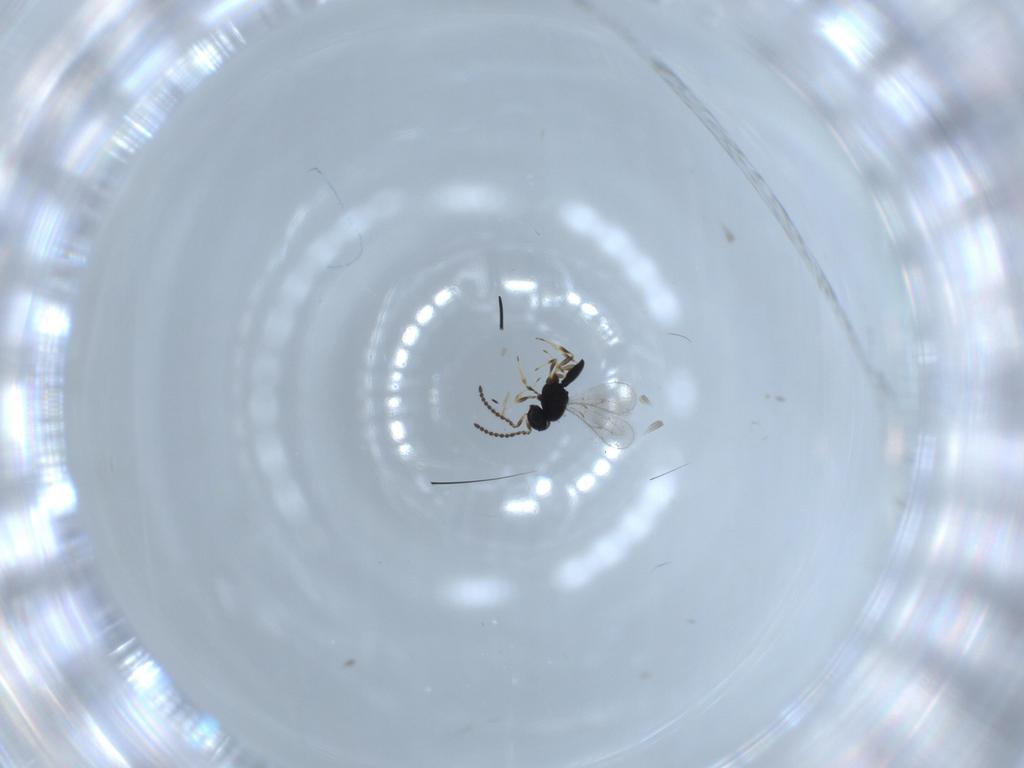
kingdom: Animalia
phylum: Arthropoda
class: Insecta
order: Hymenoptera
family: Scelionidae
